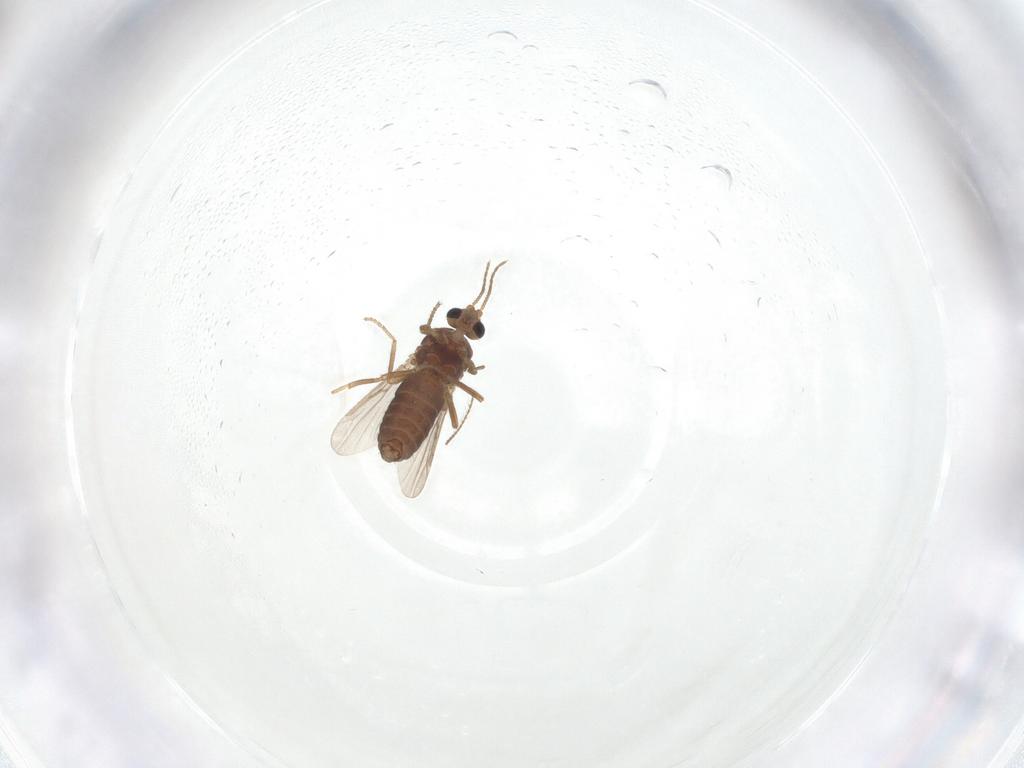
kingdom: Animalia
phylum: Arthropoda
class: Insecta
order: Diptera
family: Ceratopogonidae
